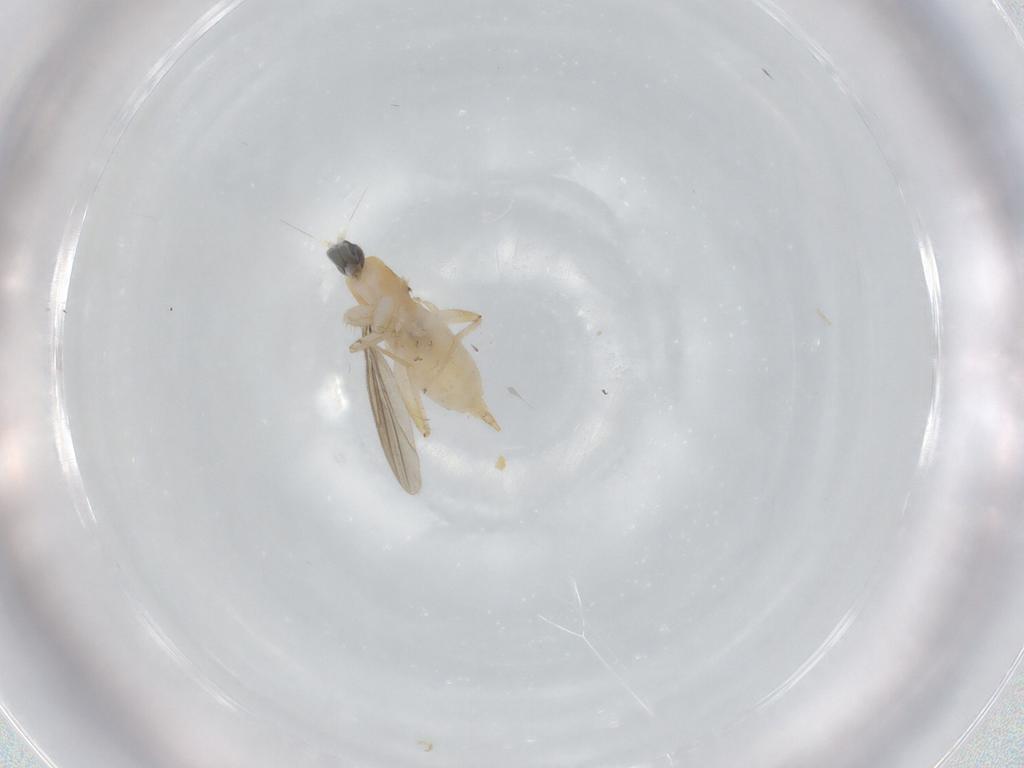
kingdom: Animalia
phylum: Arthropoda
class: Insecta
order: Diptera
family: Hybotidae
